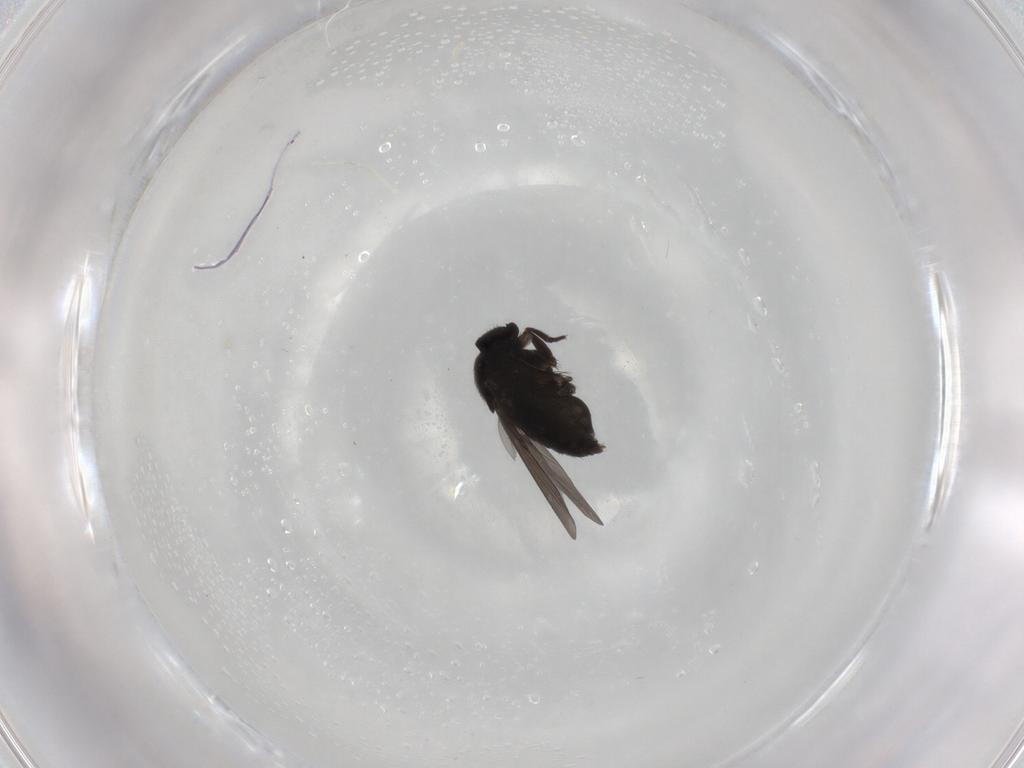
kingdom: Animalia
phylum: Arthropoda
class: Insecta
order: Diptera
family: Phoridae
